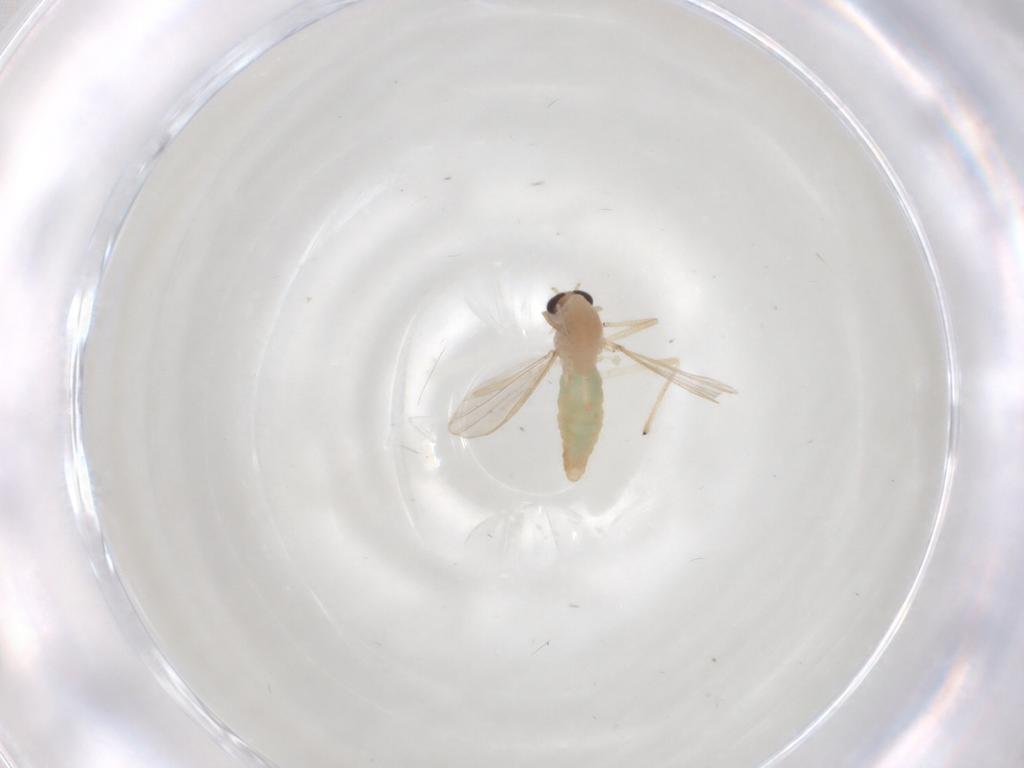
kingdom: Animalia
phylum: Arthropoda
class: Insecta
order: Diptera
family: Chironomidae
